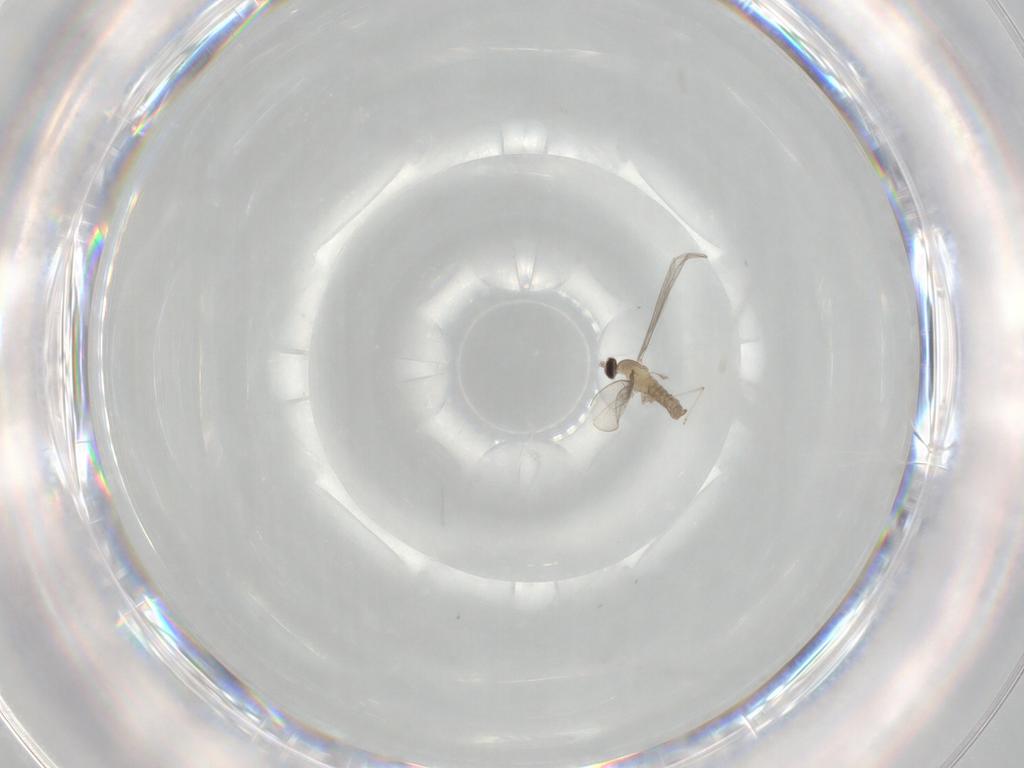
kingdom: Animalia
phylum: Arthropoda
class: Insecta
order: Diptera
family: Cecidomyiidae
